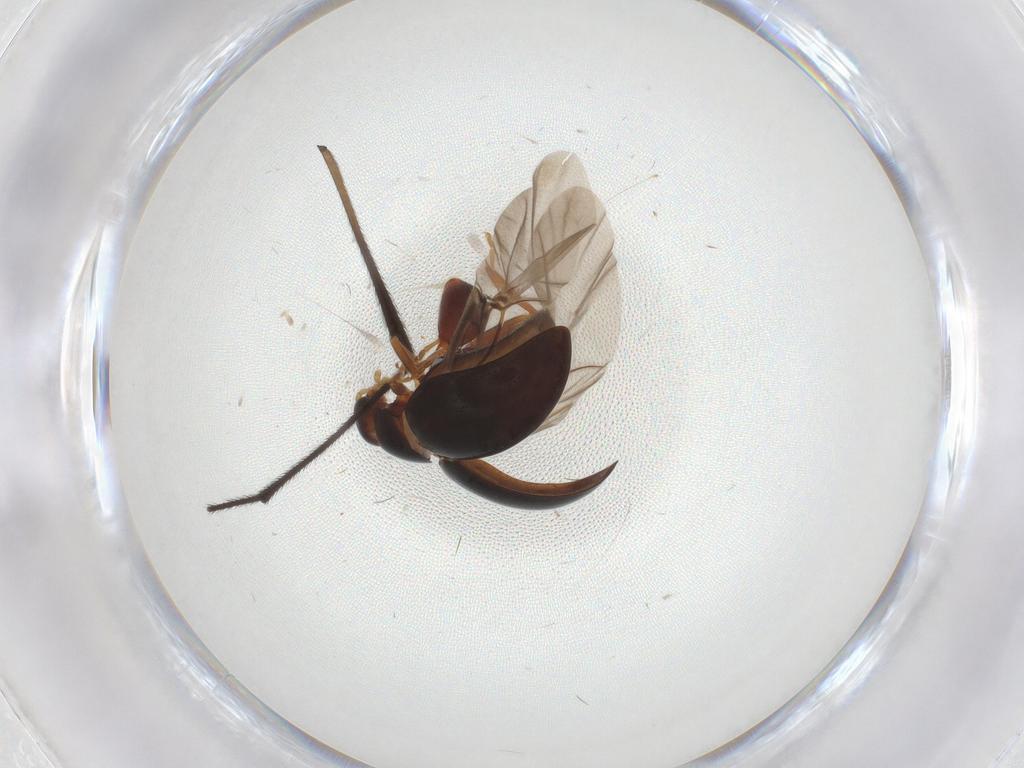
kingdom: Animalia
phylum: Arthropoda
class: Insecta
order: Coleoptera
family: Chrysomelidae
